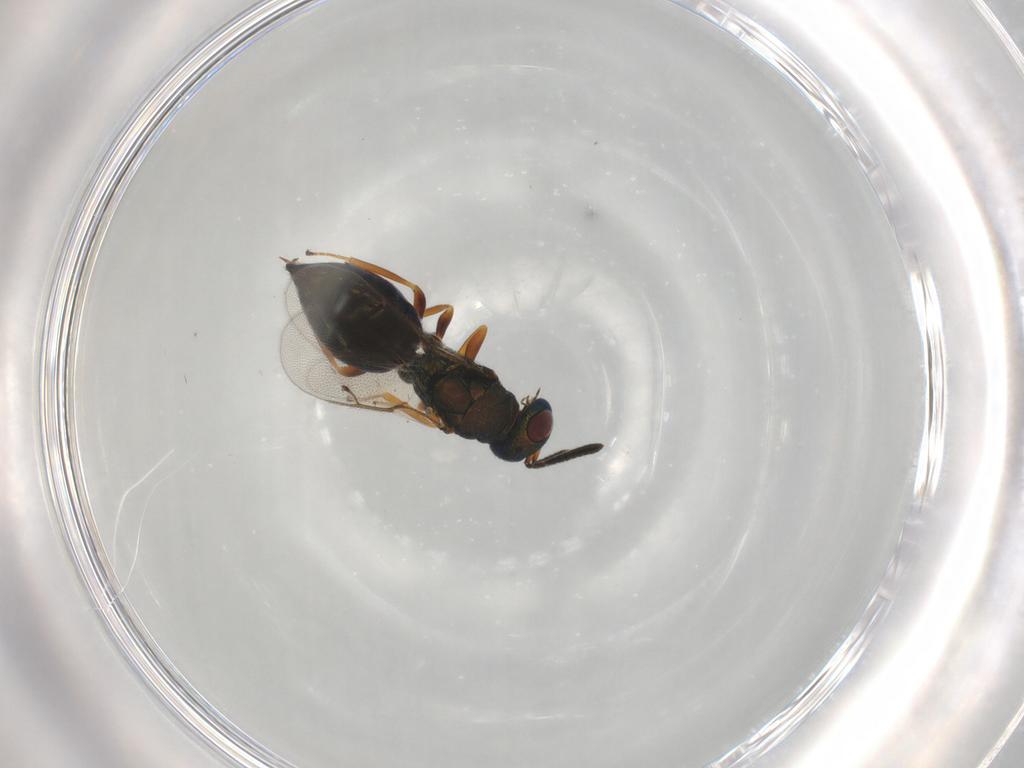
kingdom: Animalia
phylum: Arthropoda
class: Insecta
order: Hymenoptera
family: Pteromalidae
